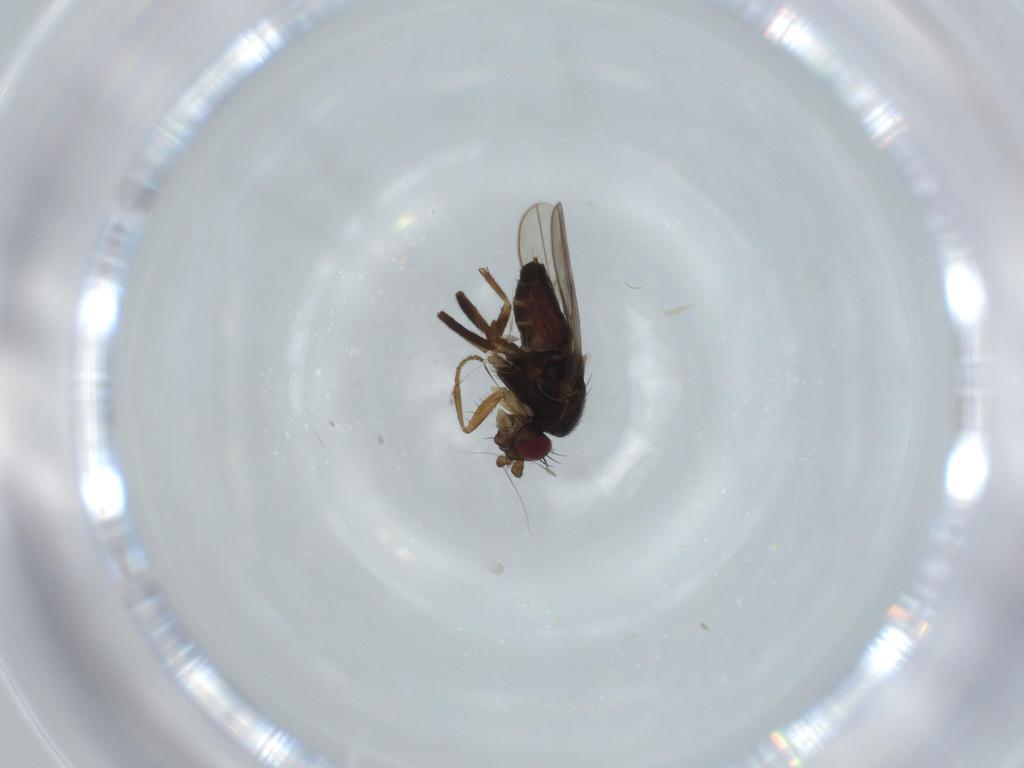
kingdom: Animalia
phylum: Arthropoda
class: Insecta
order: Diptera
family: Sphaeroceridae
